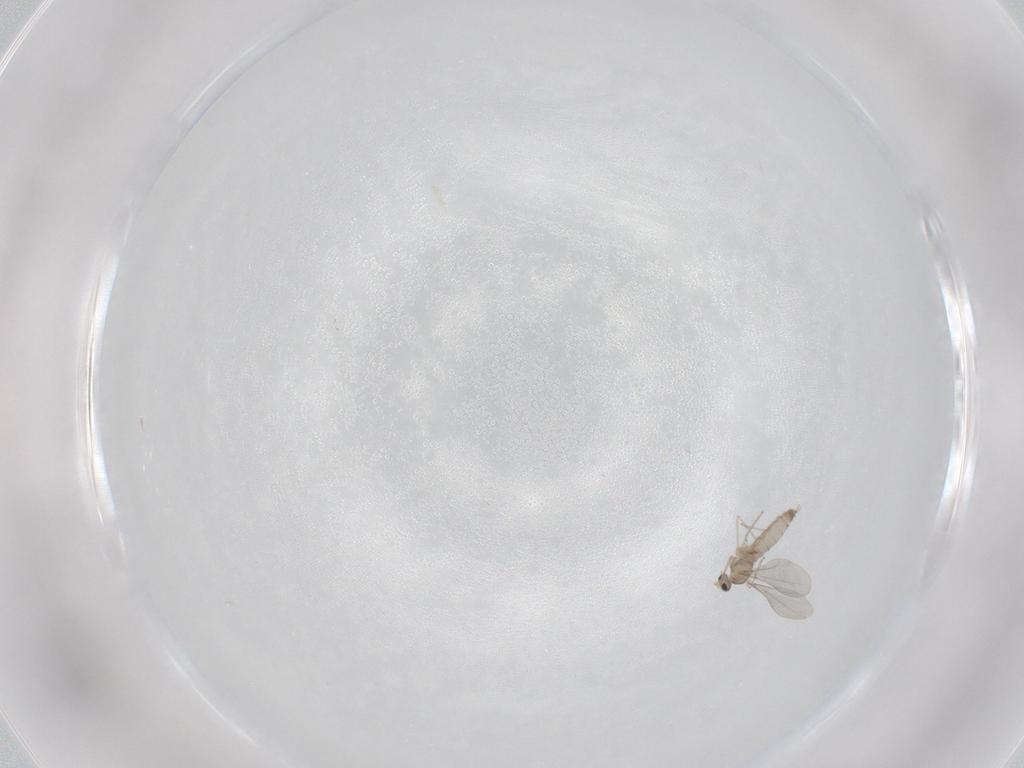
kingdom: Animalia
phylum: Arthropoda
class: Insecta
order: Diptera
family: Cecidomyiidae
